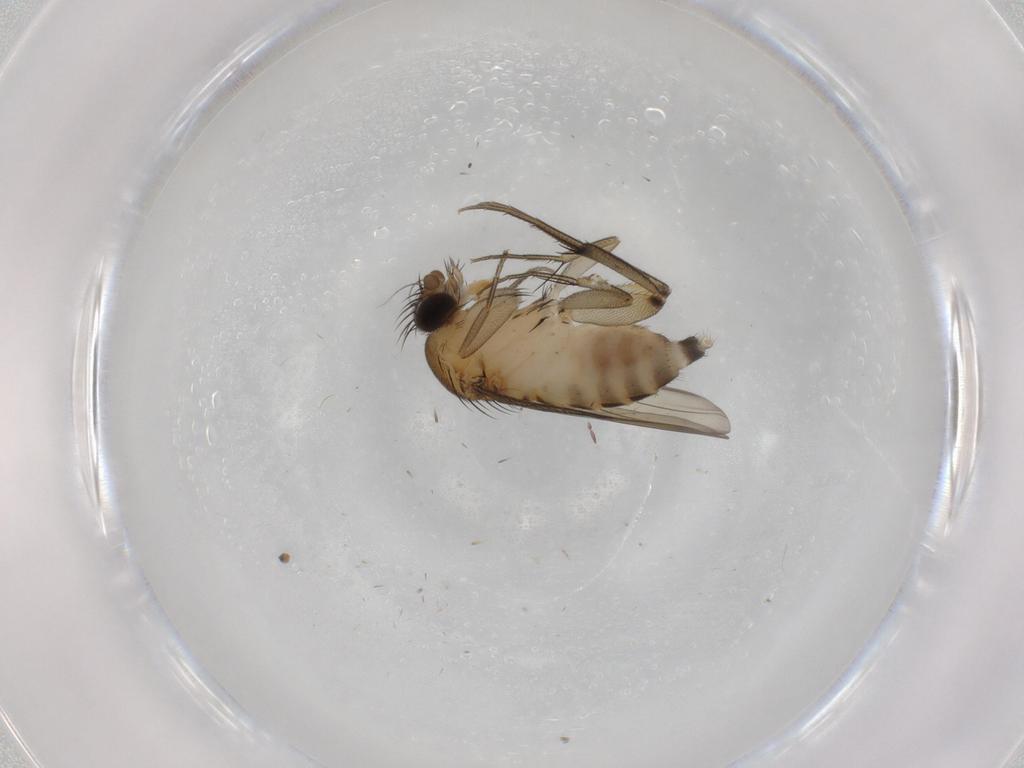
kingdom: Animalia
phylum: Arthropoda
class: Insecta
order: Diptera
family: Phoridae
